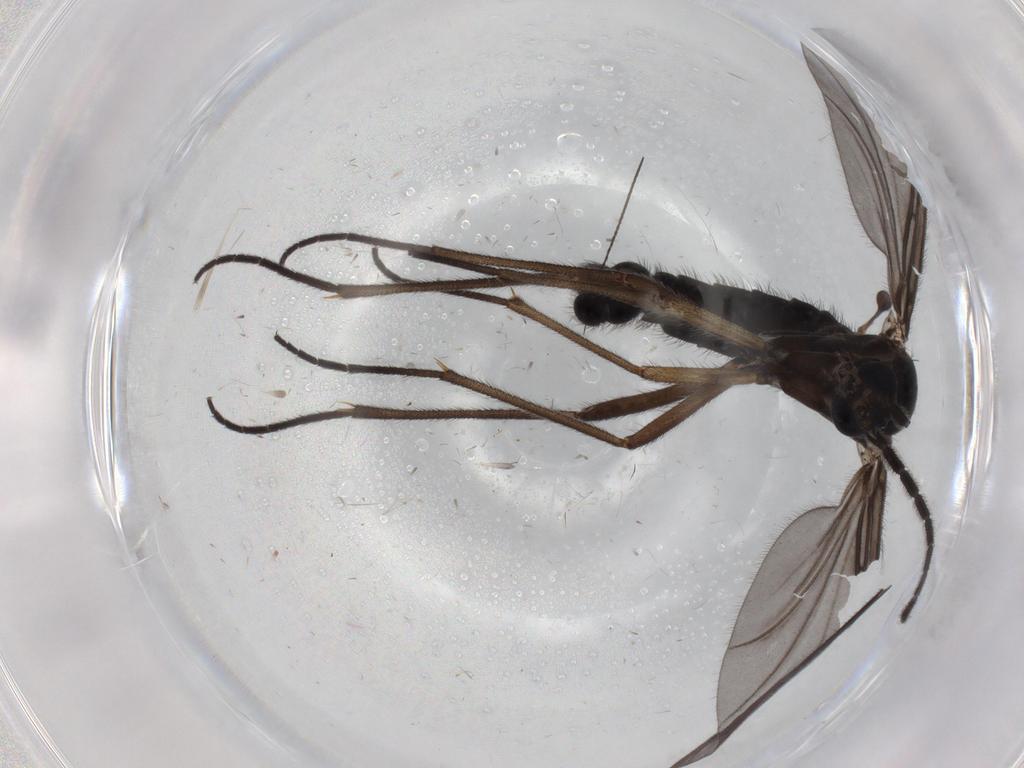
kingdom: Animalia
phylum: Arthropoda
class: Insecta
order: Diptera
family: Sciaridae
